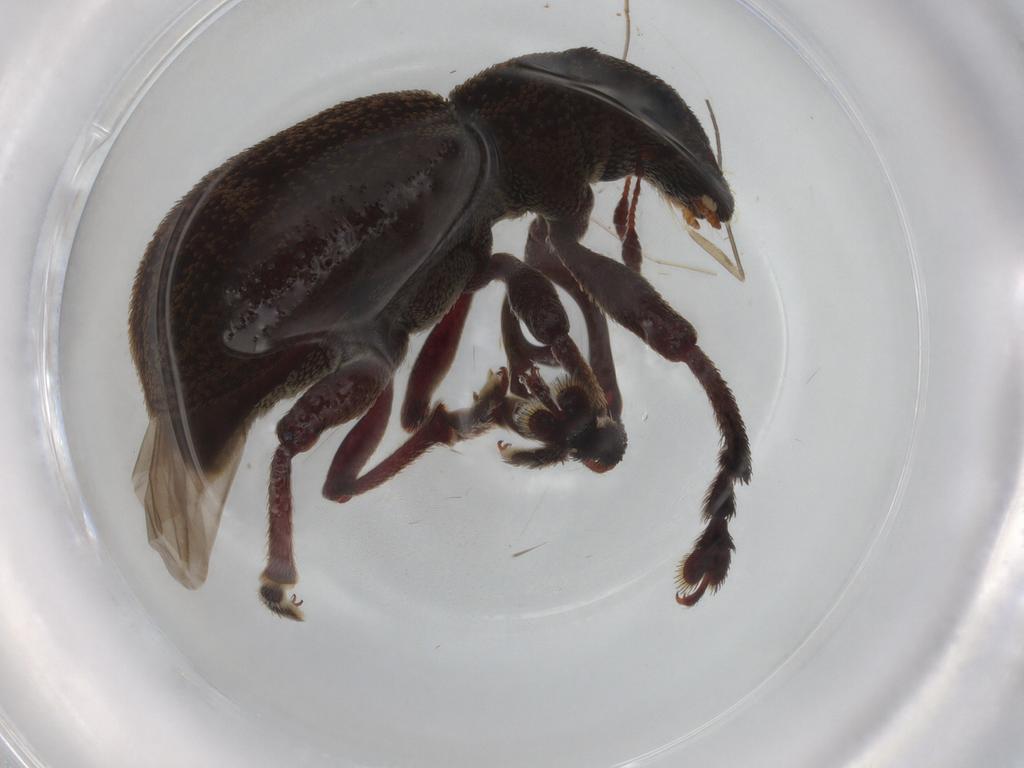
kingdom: Animalia
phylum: Arthropoda
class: Insecta
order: Coleoptera
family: Curculionidae
